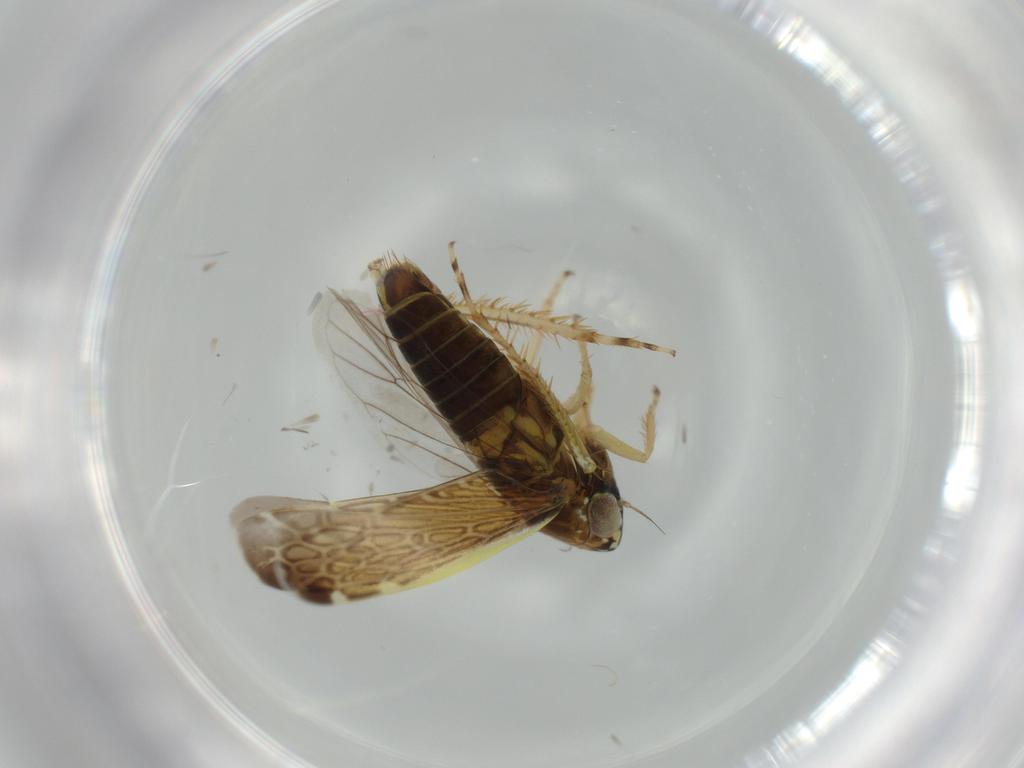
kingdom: Animalia
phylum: Arthropoda
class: Insecta
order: Hemiptera
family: Cicadellidae
